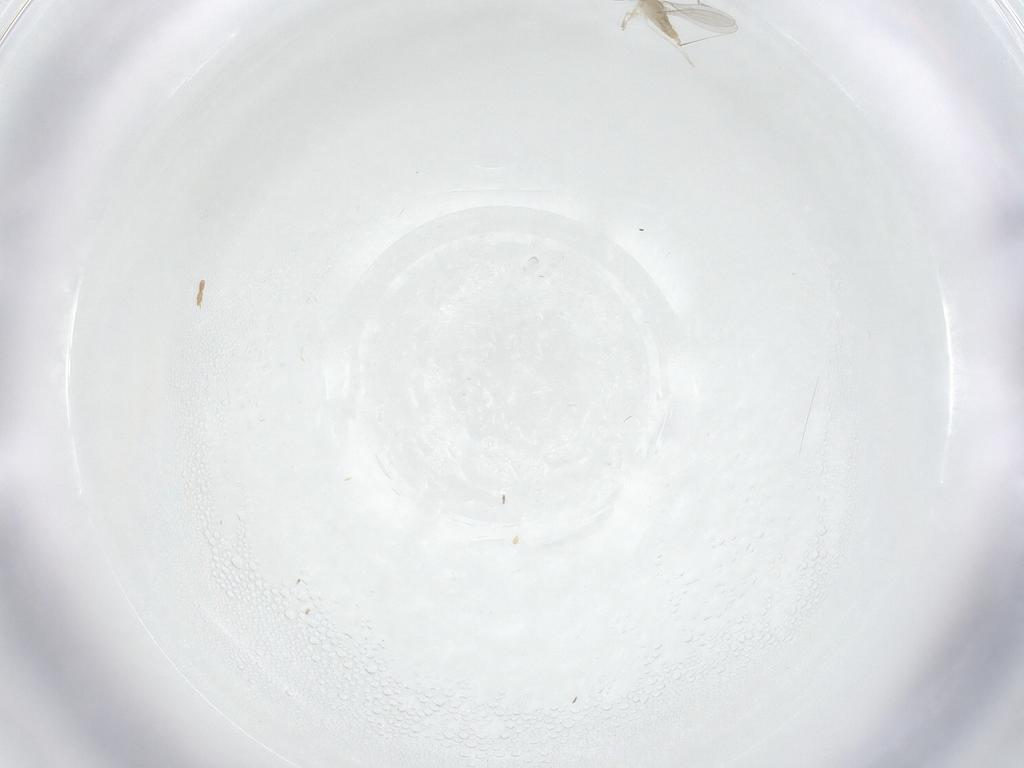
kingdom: Animalia
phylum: Arthropoda
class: Insecta
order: Diptera
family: Cecidomyiidae
